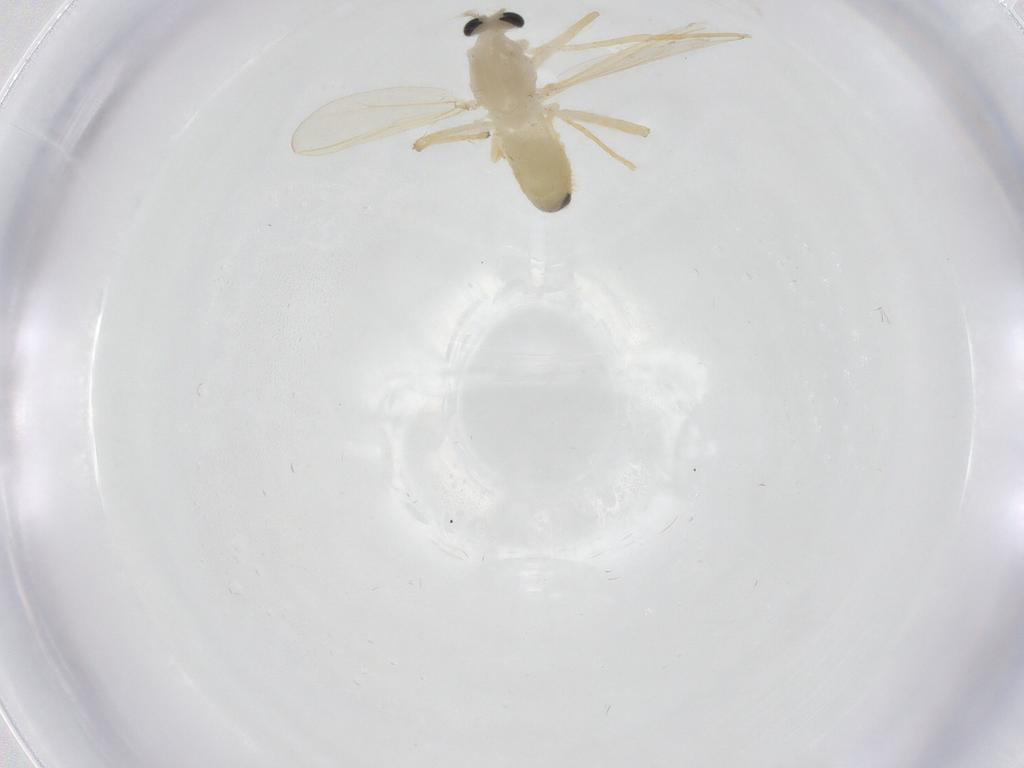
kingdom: Animalia
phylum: Arthropoda
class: Insecta
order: Diptera
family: Chironomidae
